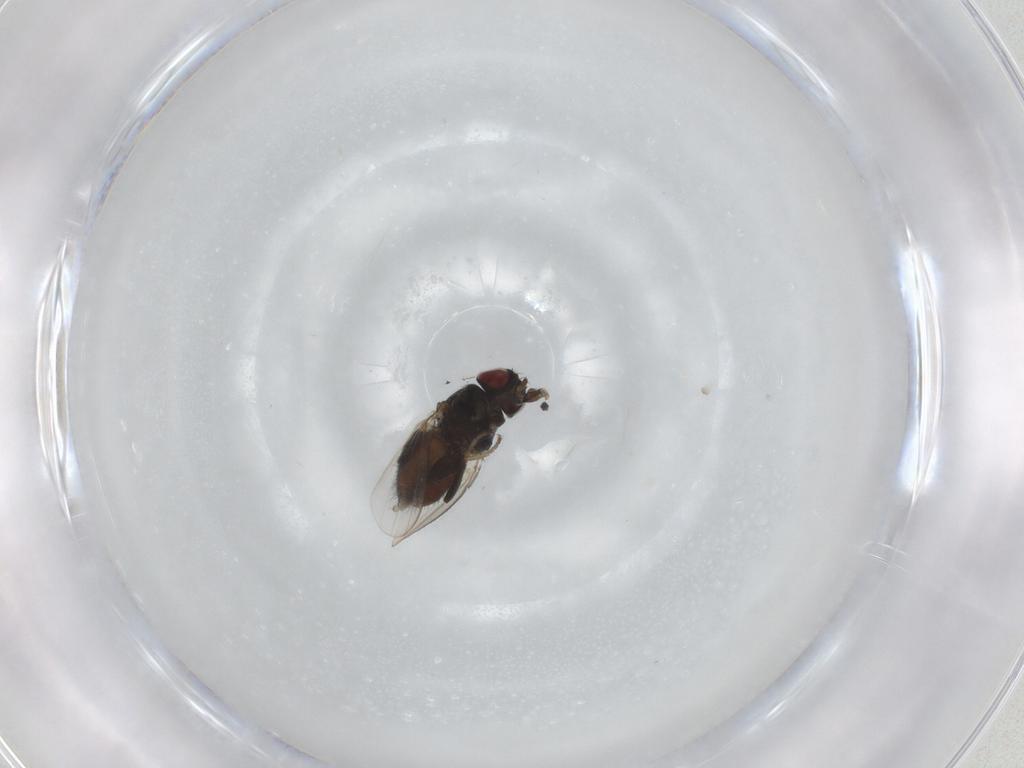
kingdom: Animalia
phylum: Arthropoda
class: Insecta
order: Diptera
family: Milichiidae
